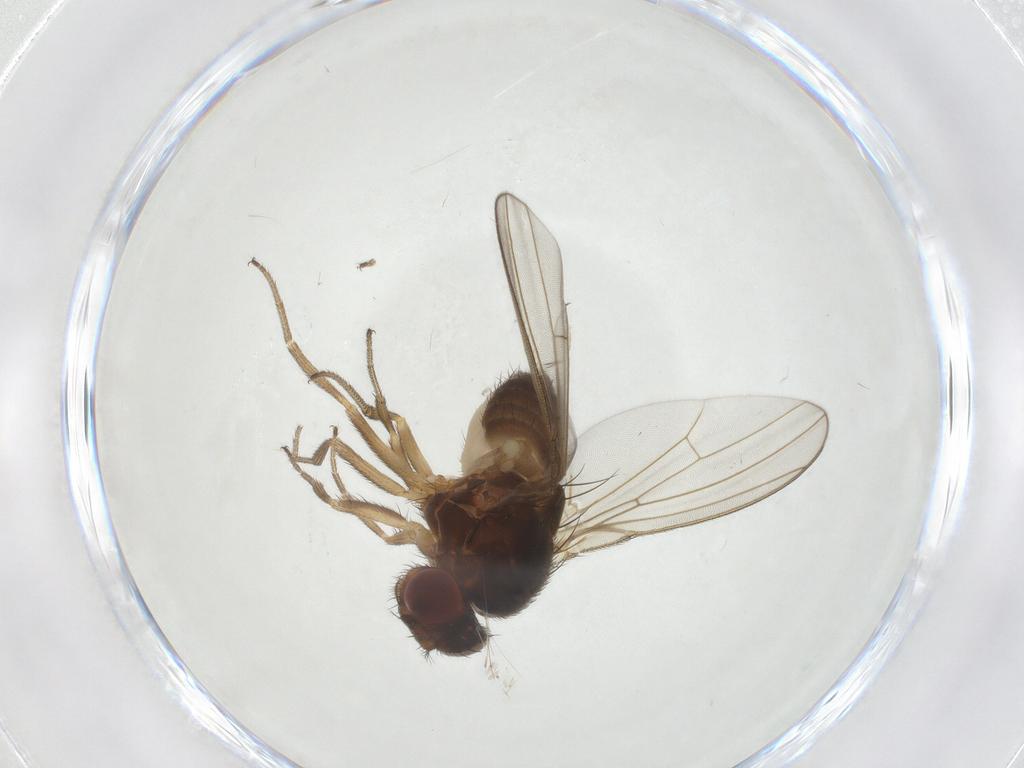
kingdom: Animalia
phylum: Arthropoda
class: Insecta
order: Diptera
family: Drosophilidae
